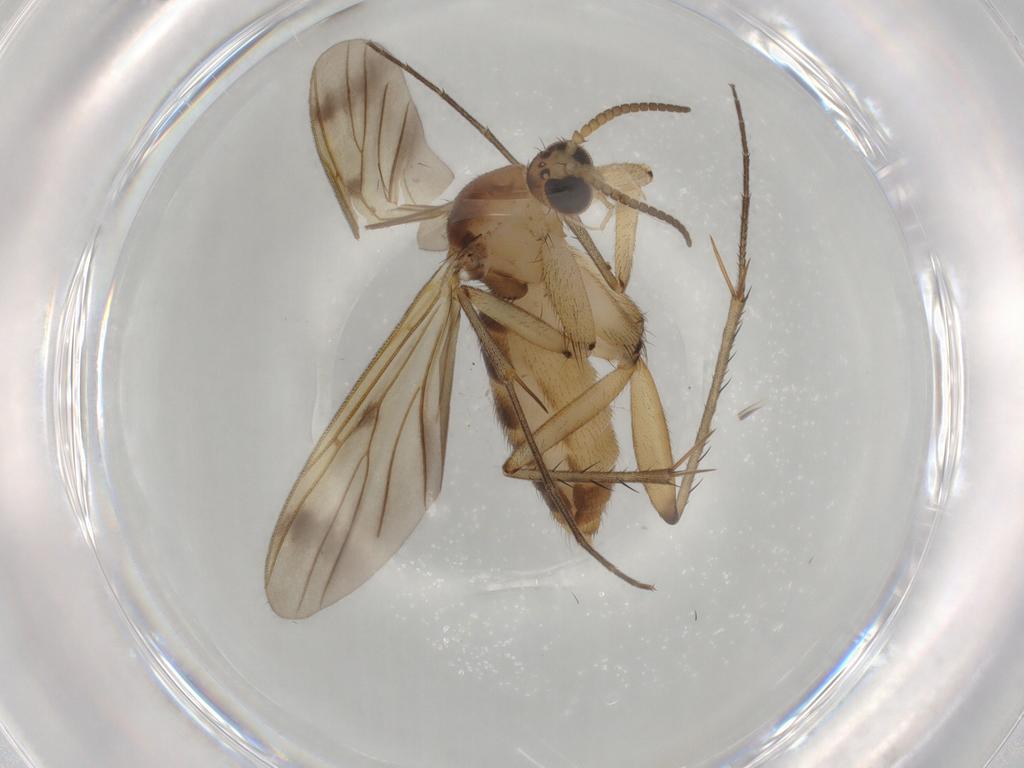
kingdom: Animalia
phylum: Arthropoda
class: Insecta
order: Diptera
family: Mycetophilidae
